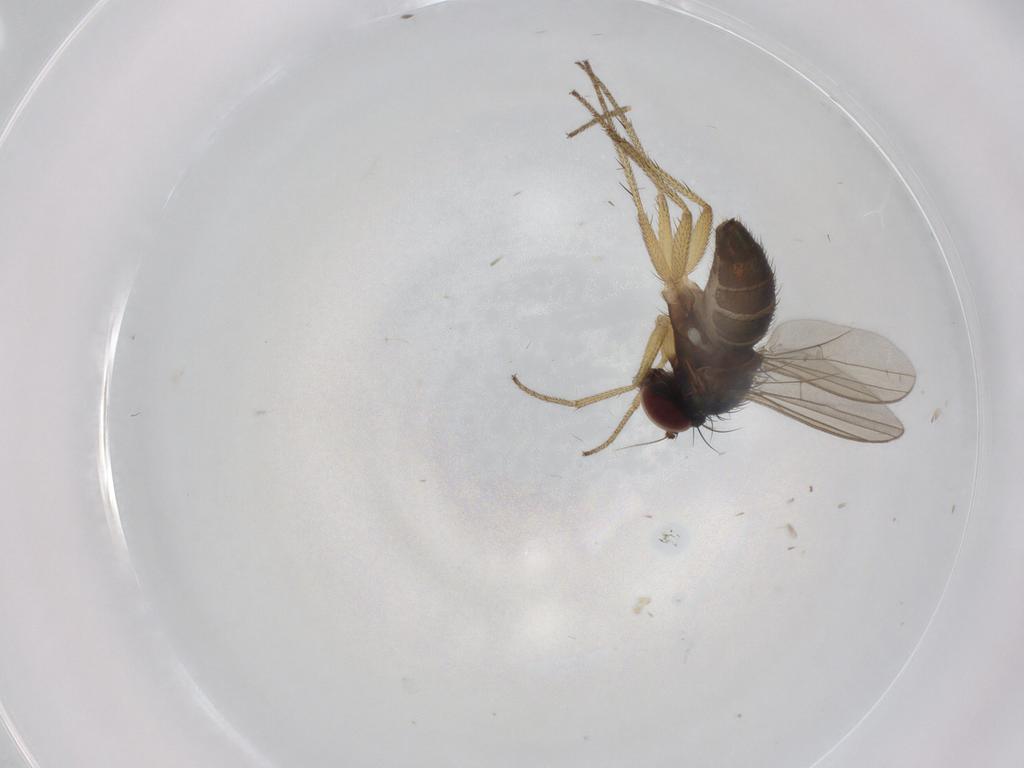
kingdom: Animalia
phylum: Arthropoda
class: Insecta
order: Diptera
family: Dolichopodidae
